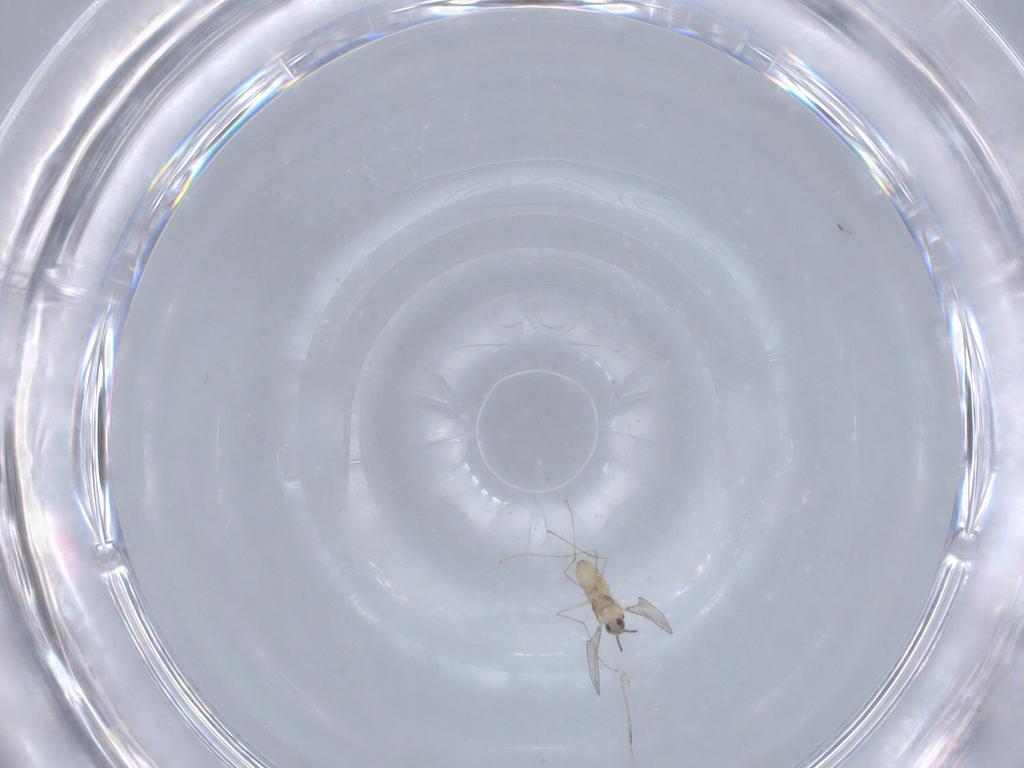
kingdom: Animalia
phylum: Arthropoda
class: Insecta
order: Diptera
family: Cecidomyiidae
